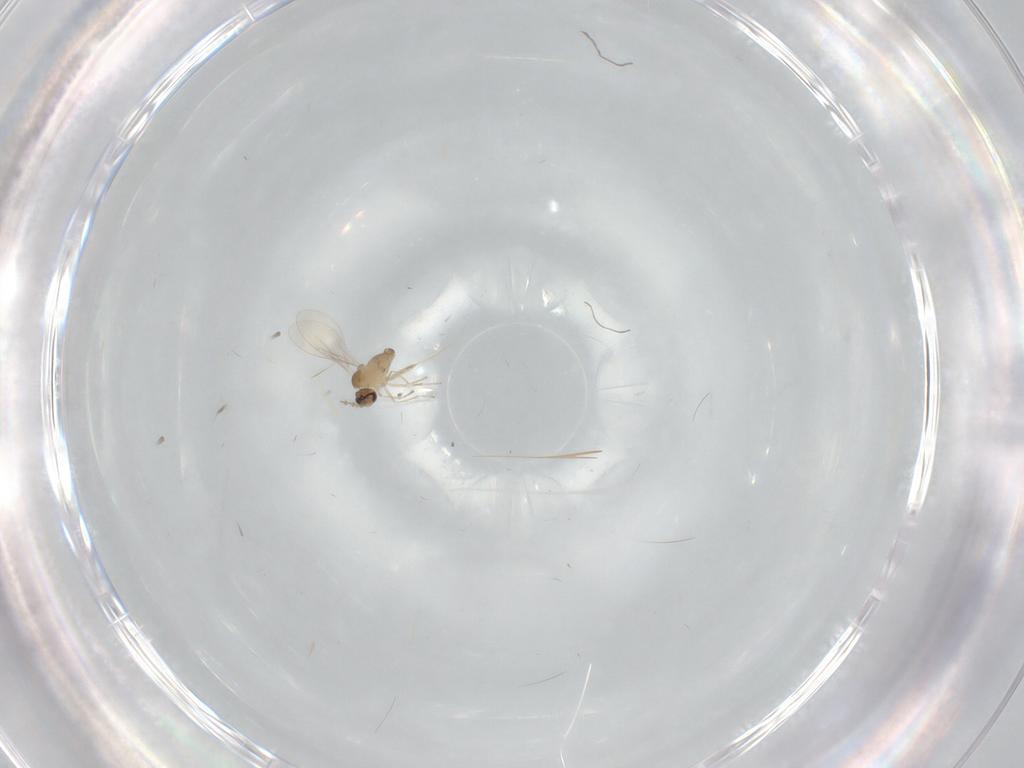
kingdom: Animalia
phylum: Arthropoda
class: Insecta
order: Diptera
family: Cecidomyiidae
